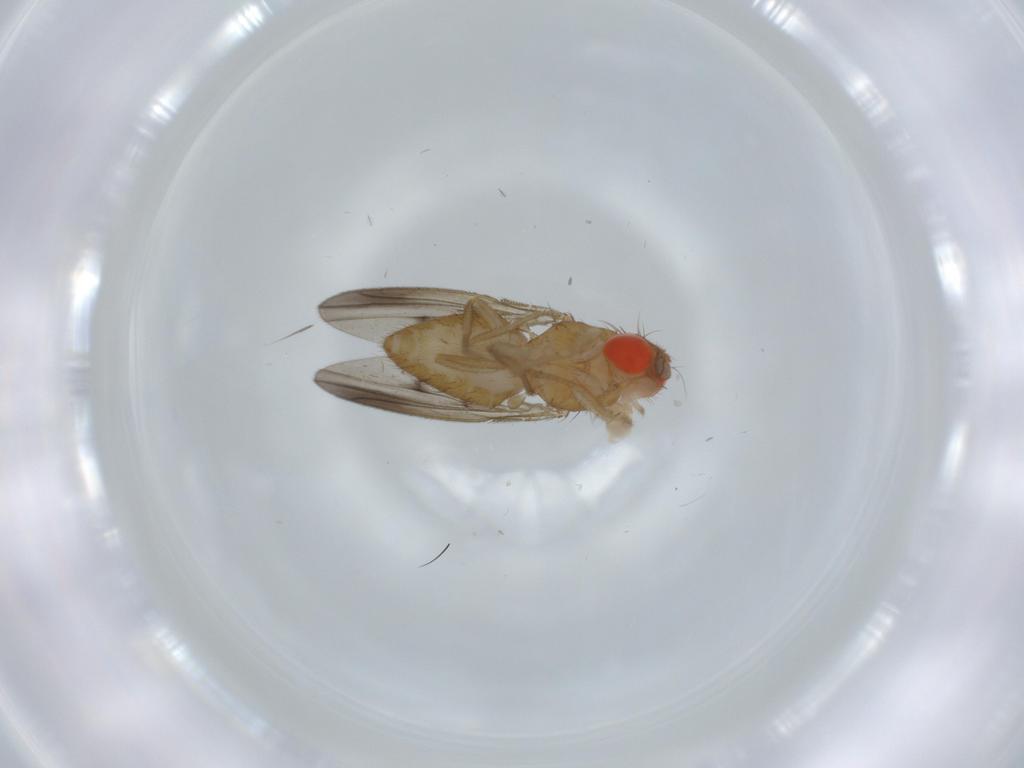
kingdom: Animalia
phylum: Arthropoda
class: Insecta
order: Diptera
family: Drosophilidae
